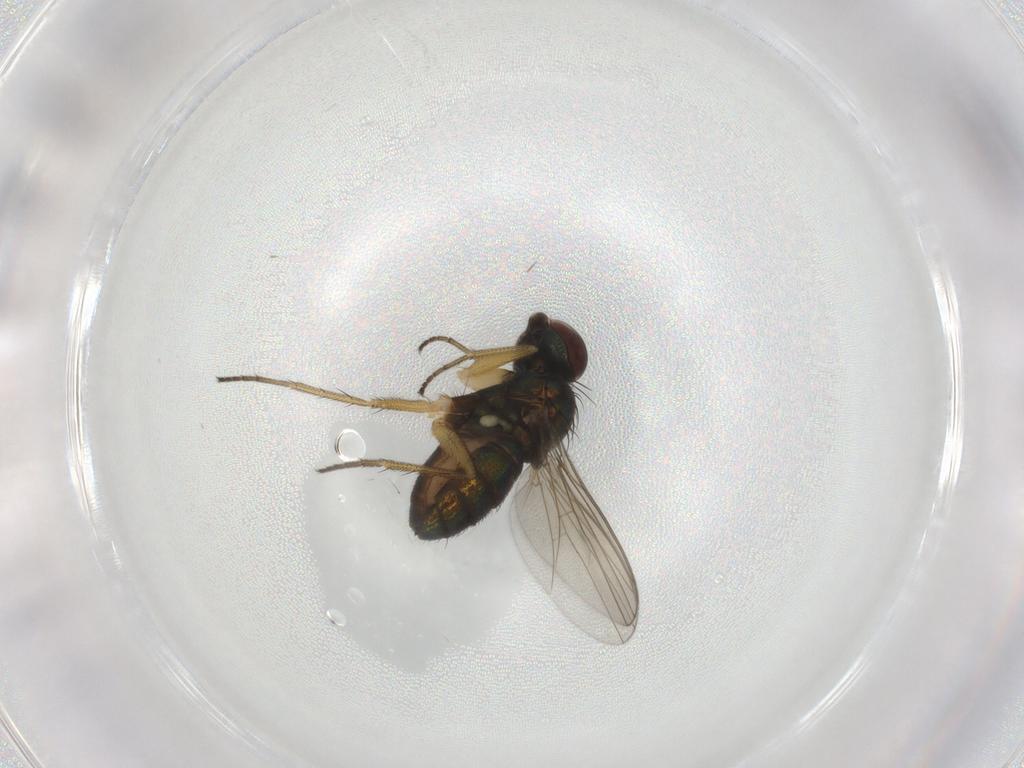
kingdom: Animalia
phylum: Arthropoda
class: Insecta
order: Diptera
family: Dolichopodidae
